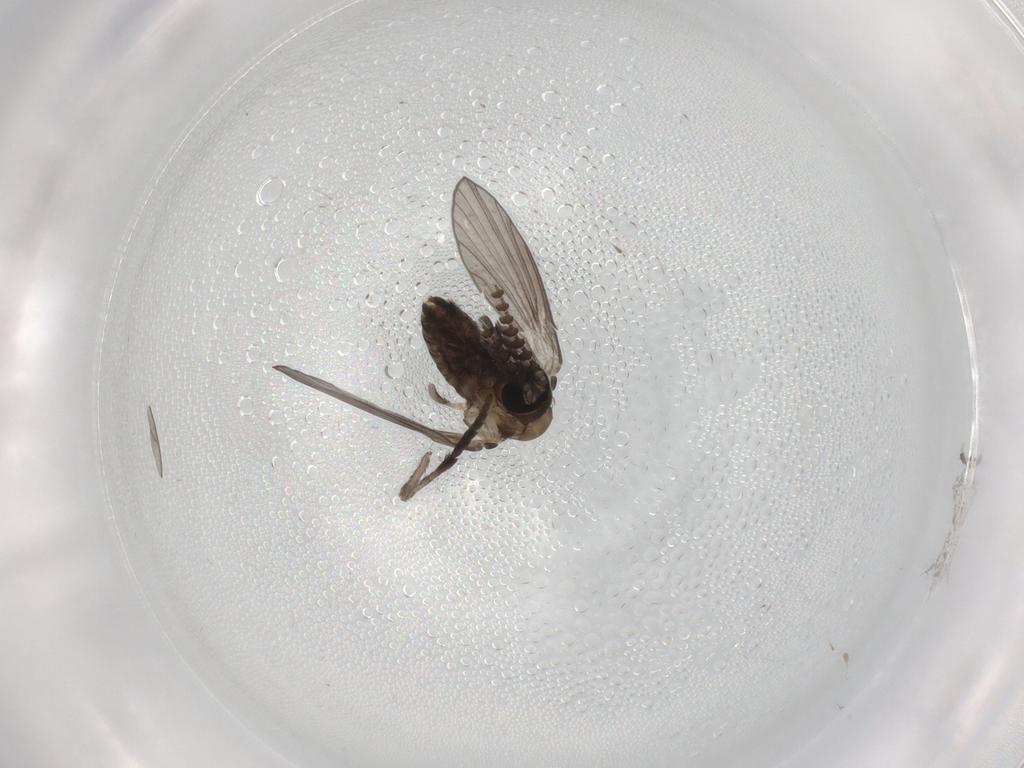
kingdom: Animalia
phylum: Arthropoda
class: Insecta
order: Diptera
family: Psychodidae
